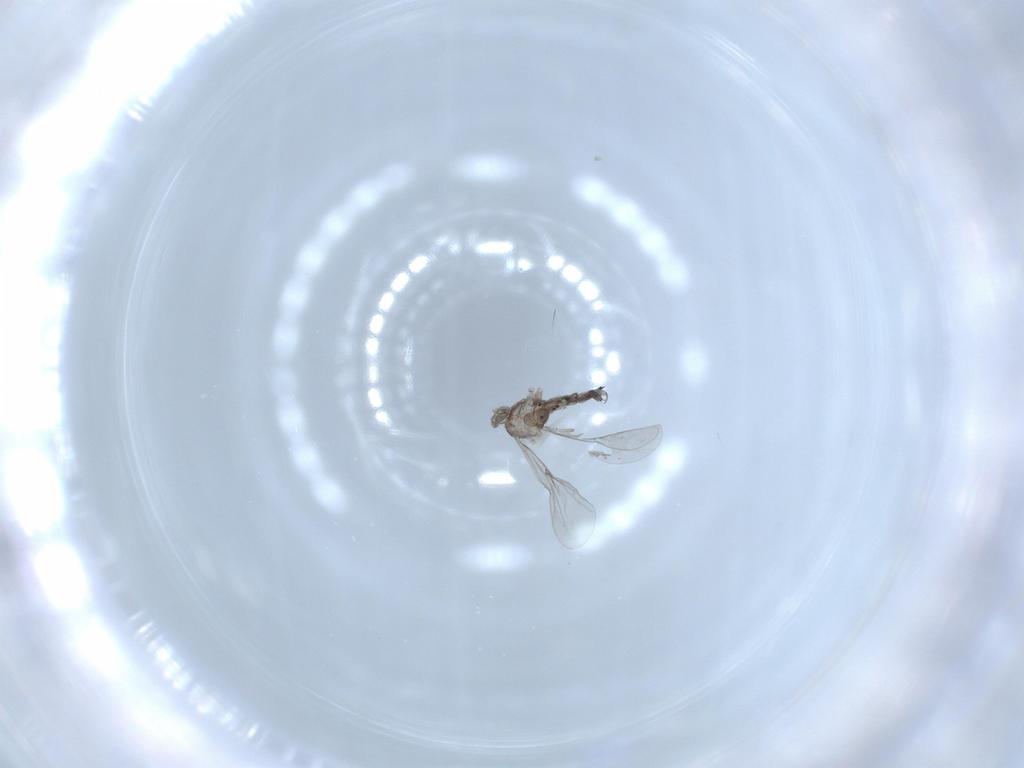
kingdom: Animalia
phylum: Arthropoda
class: Insecta
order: Diptera
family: Cecidomyiidae
